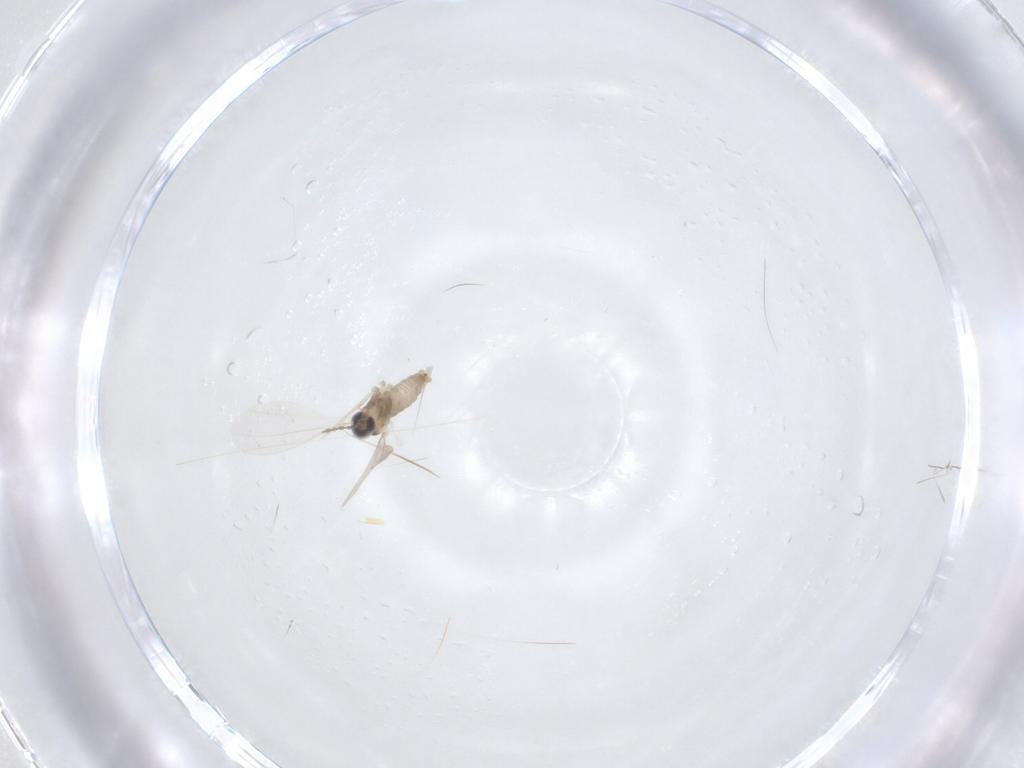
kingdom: Animalia
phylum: Arthropoda
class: Insecta
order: Diptera
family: Cecidomyiidae
